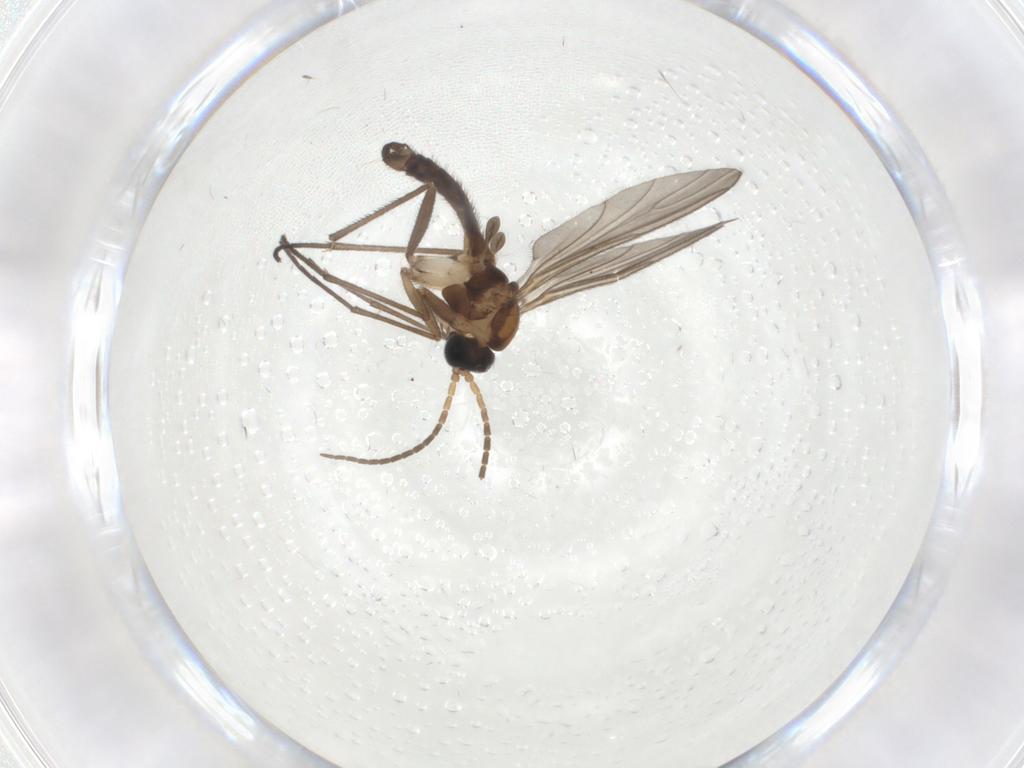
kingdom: Animalia
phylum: Arthropoda
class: Insecta
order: Diptera
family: Sciaridae
